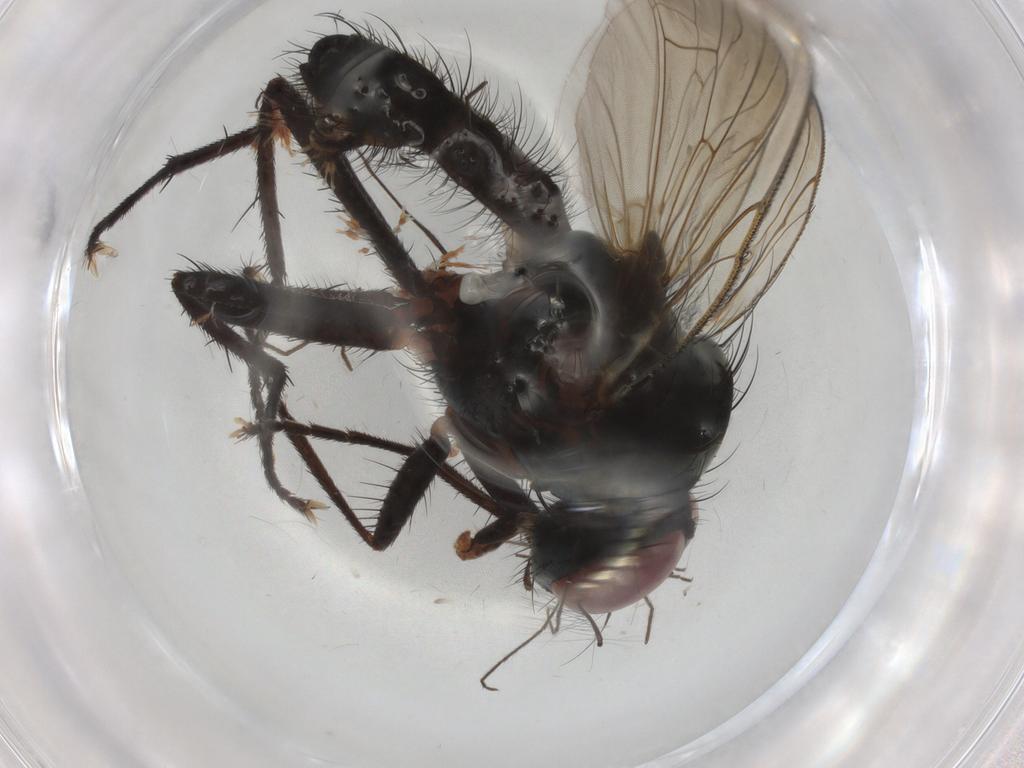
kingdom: Animalia
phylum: Arthropoda
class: Insecta
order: Diptera
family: Anthomyiidae
